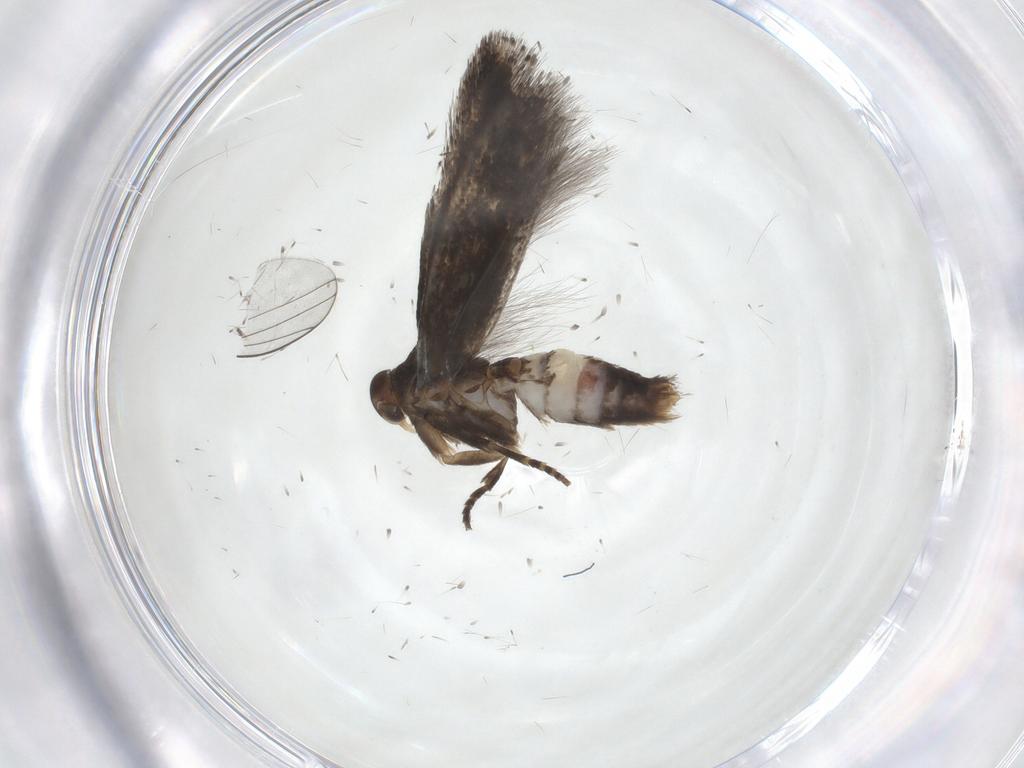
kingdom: Animalia
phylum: Arthropoda
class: Insecta
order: Lepidoptera
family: Elachistidae
